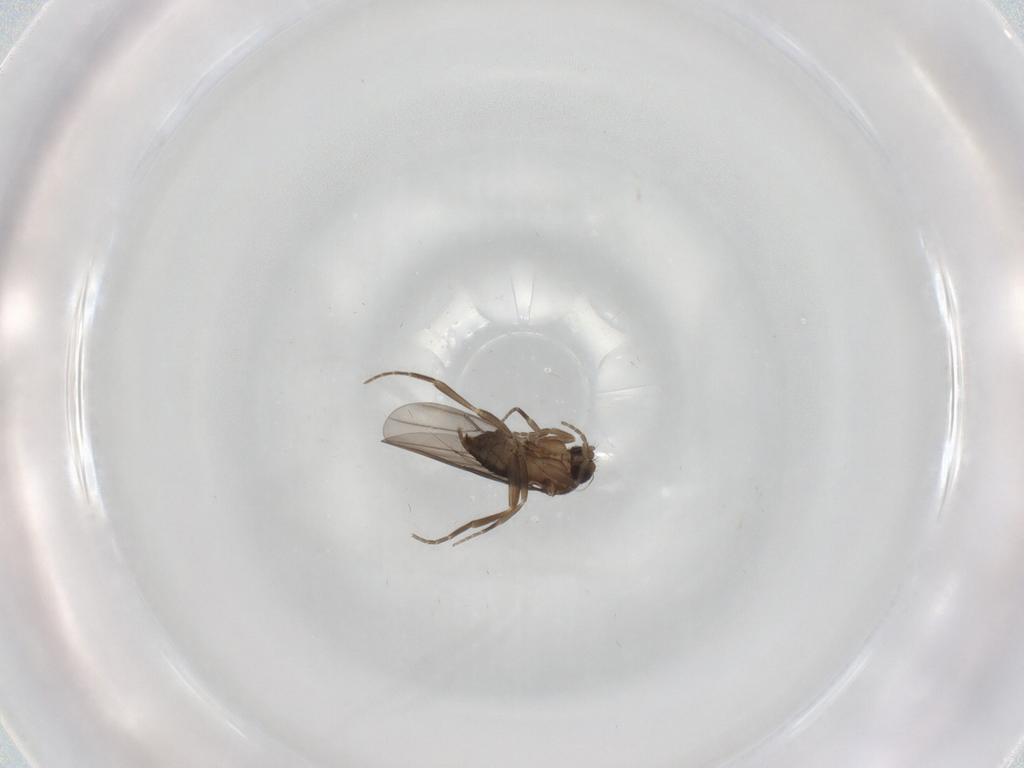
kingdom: Animalia
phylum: Arthropoda
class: Insecta
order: Diptera
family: Phoridae
